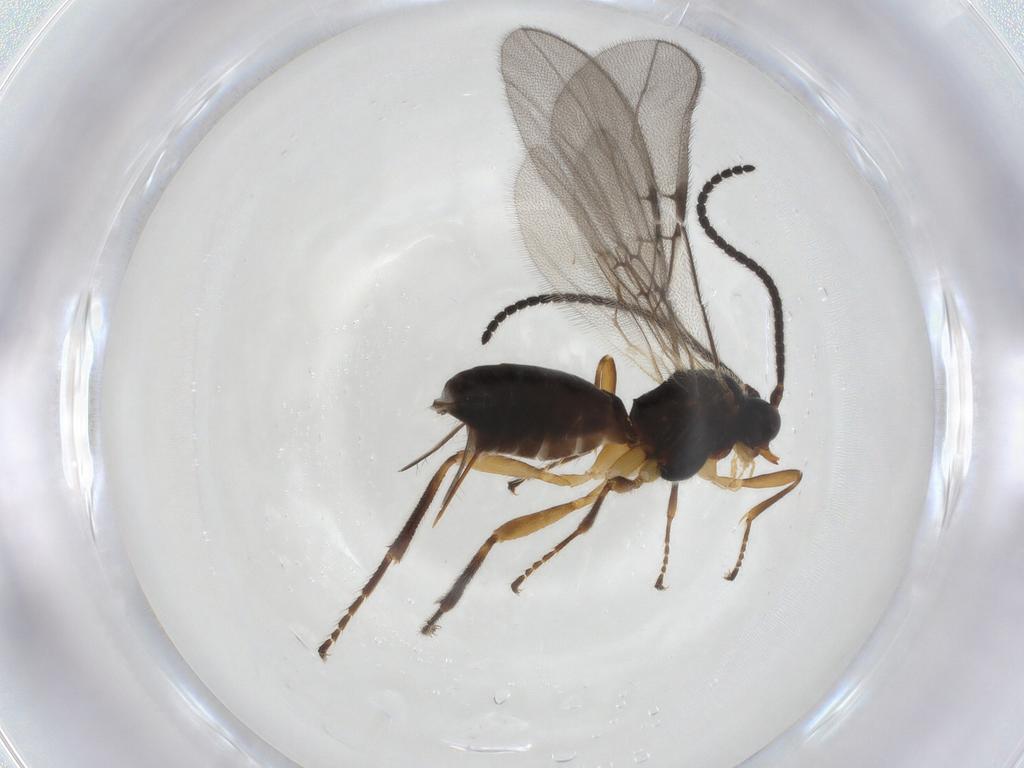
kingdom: Animalia
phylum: Arthropoda
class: Insecta
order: Hymenoptera
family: Braconidae
